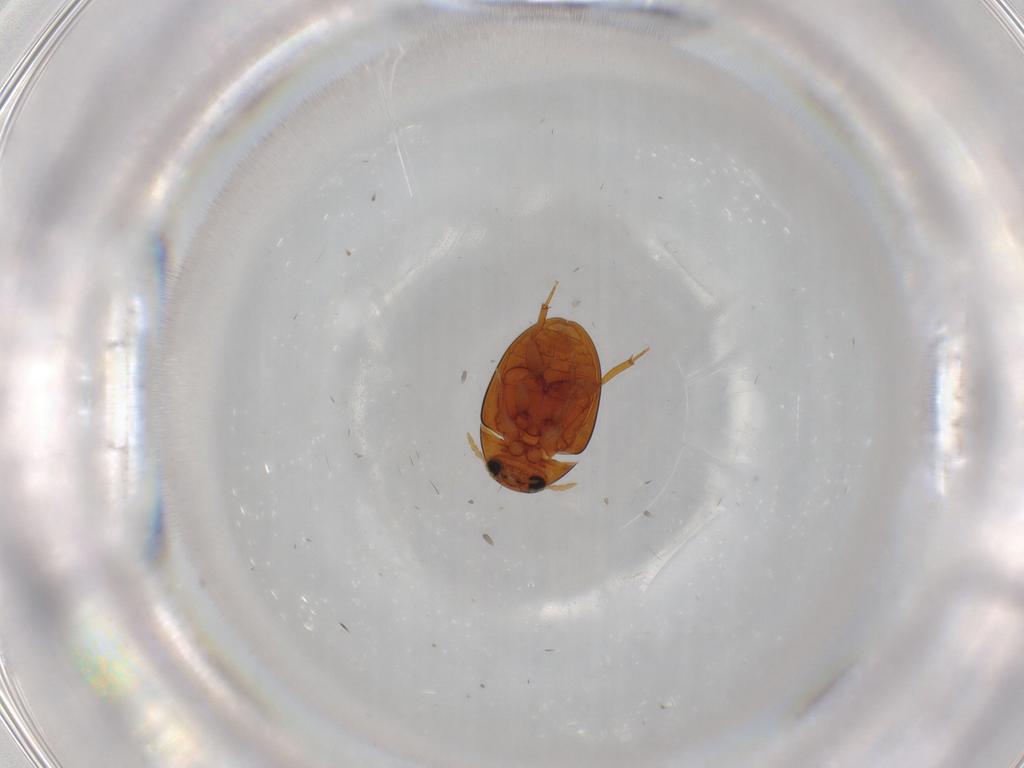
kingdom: Animalia
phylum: Arthropoda
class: Insecta
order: Coleoptera
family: Phalacridae
